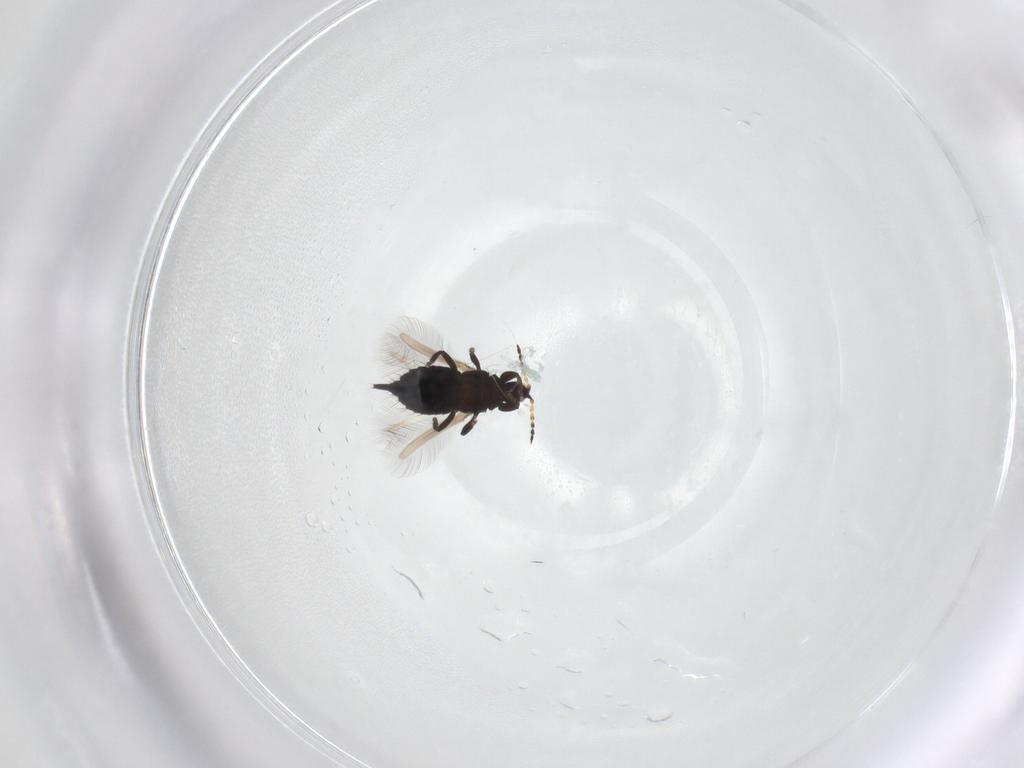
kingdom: Animalia
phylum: Arthropoda
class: Insecta
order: Thysanoptera
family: Phlaeothripidae
